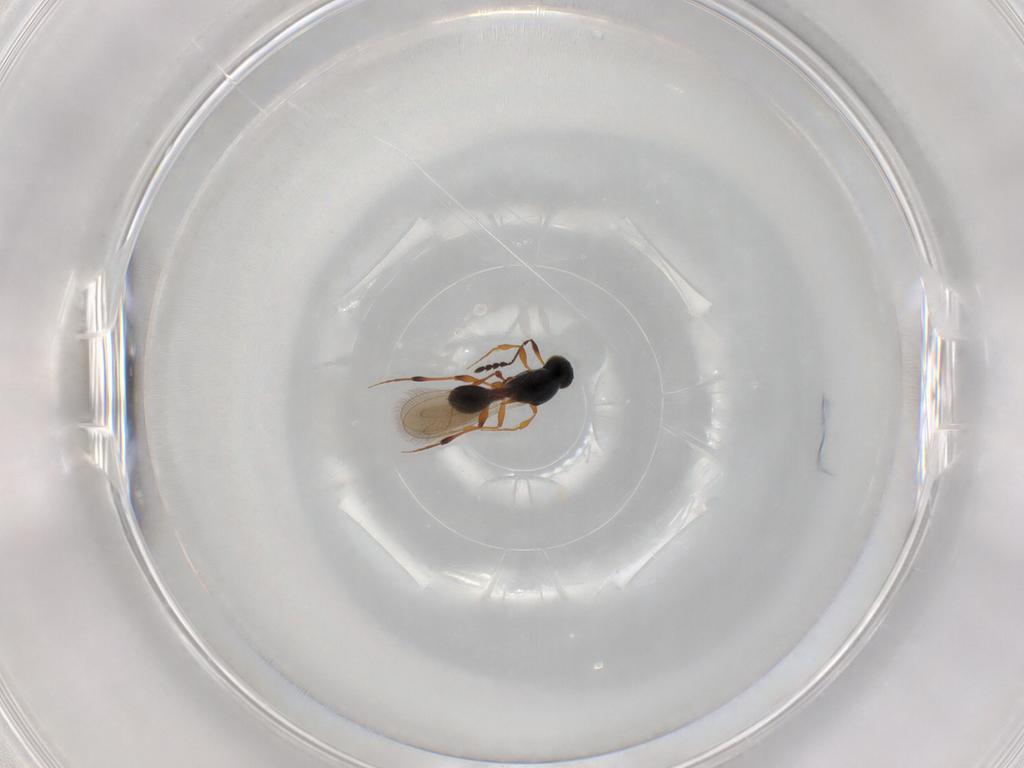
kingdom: Animalia
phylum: Arthropoda
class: Insecta
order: Hymenoptera
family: Platygastridae
